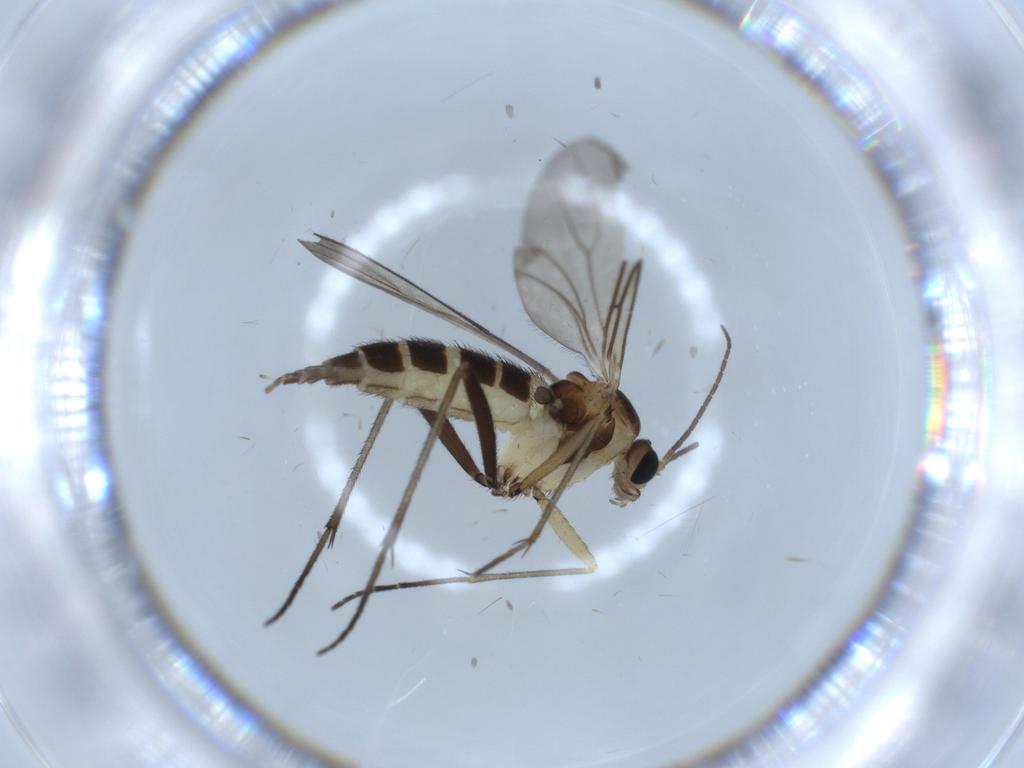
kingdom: Animalia
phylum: Arthropoda
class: Insecta
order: Diptera
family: Sciaridae
